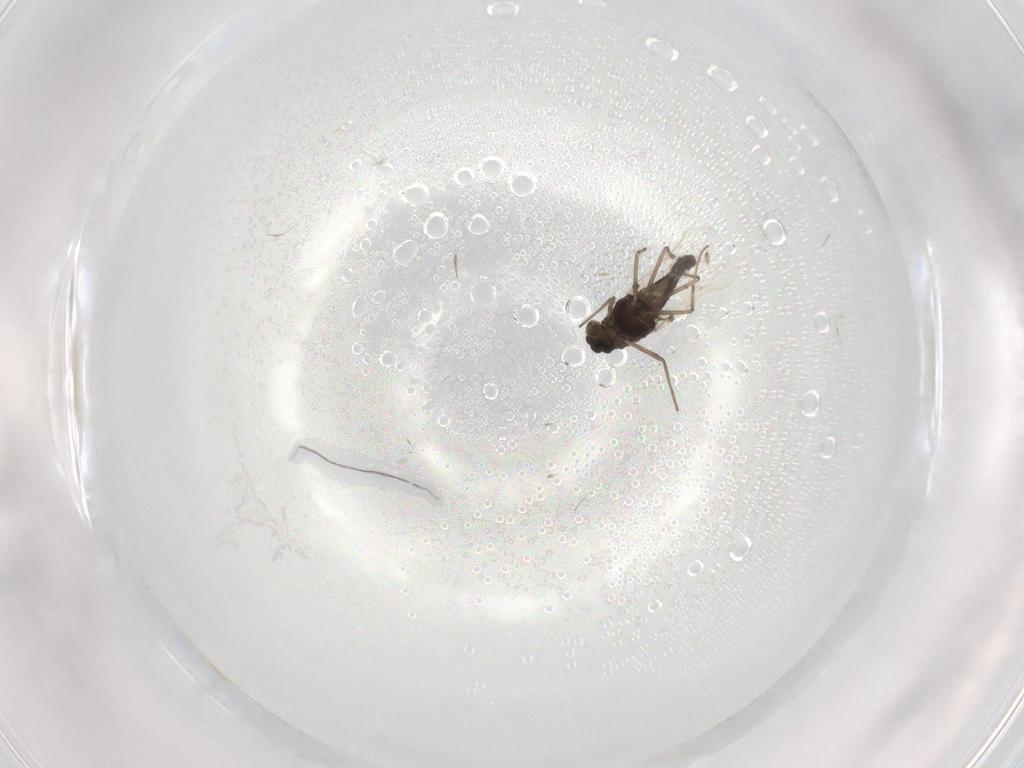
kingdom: Animalia
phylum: Arthropoda
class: Insecta
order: Diptera
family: Chironomidae
